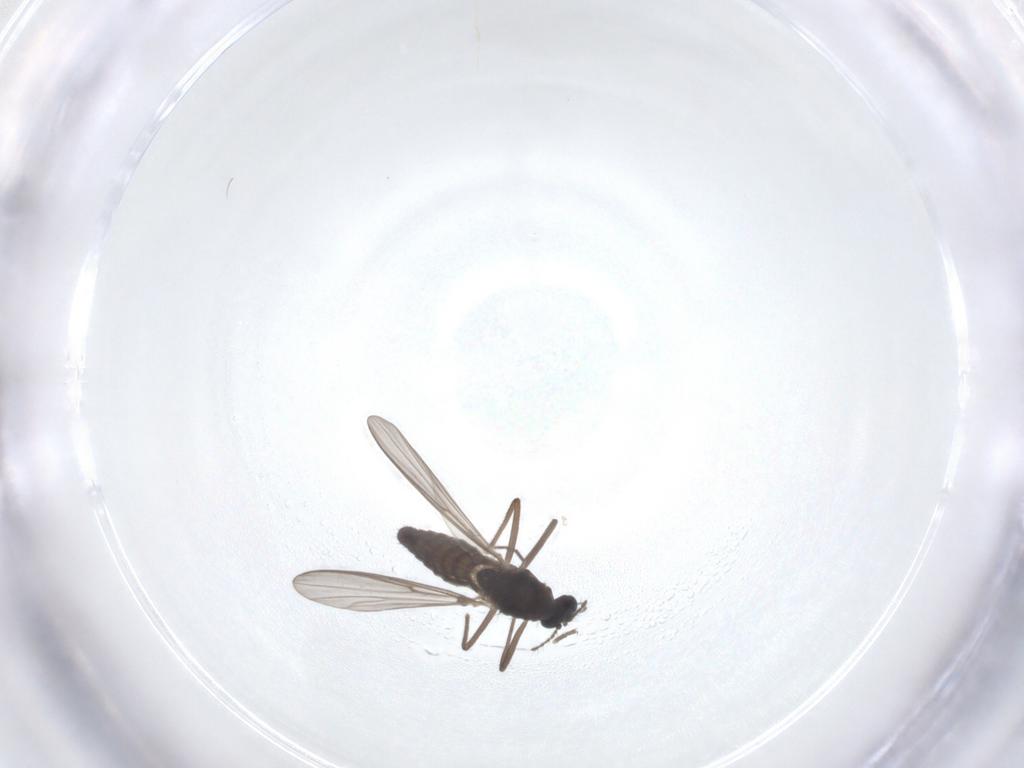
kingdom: Animalia
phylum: Arthropoda
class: Insecta
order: Diptera
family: Chironomidae
